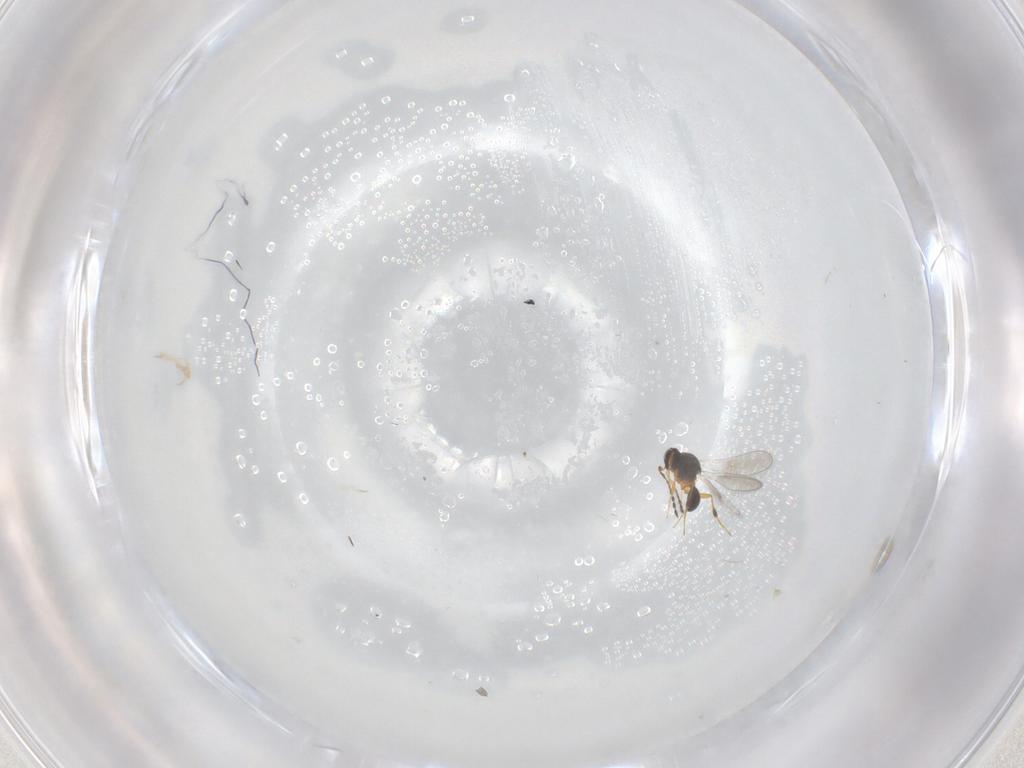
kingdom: Animalia
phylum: Arthropoda
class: Insecta
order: Hymenoptera
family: Platygastridae
